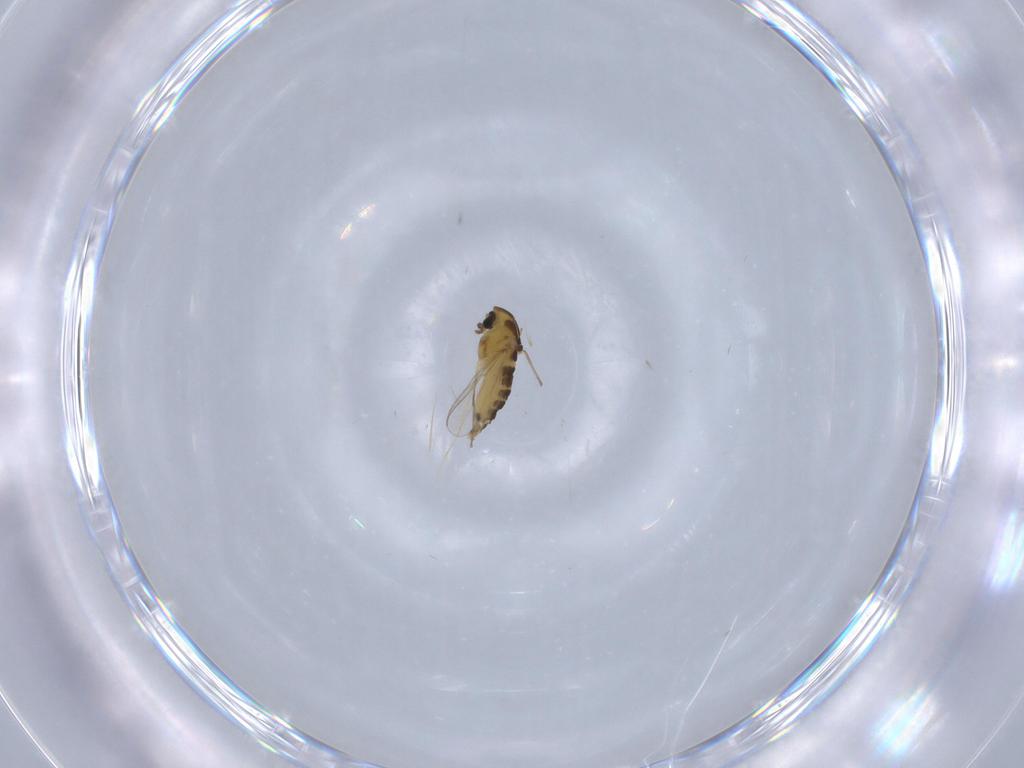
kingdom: Animalia
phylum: Arthropoda
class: Insecta
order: Diptera
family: Chironomidae
